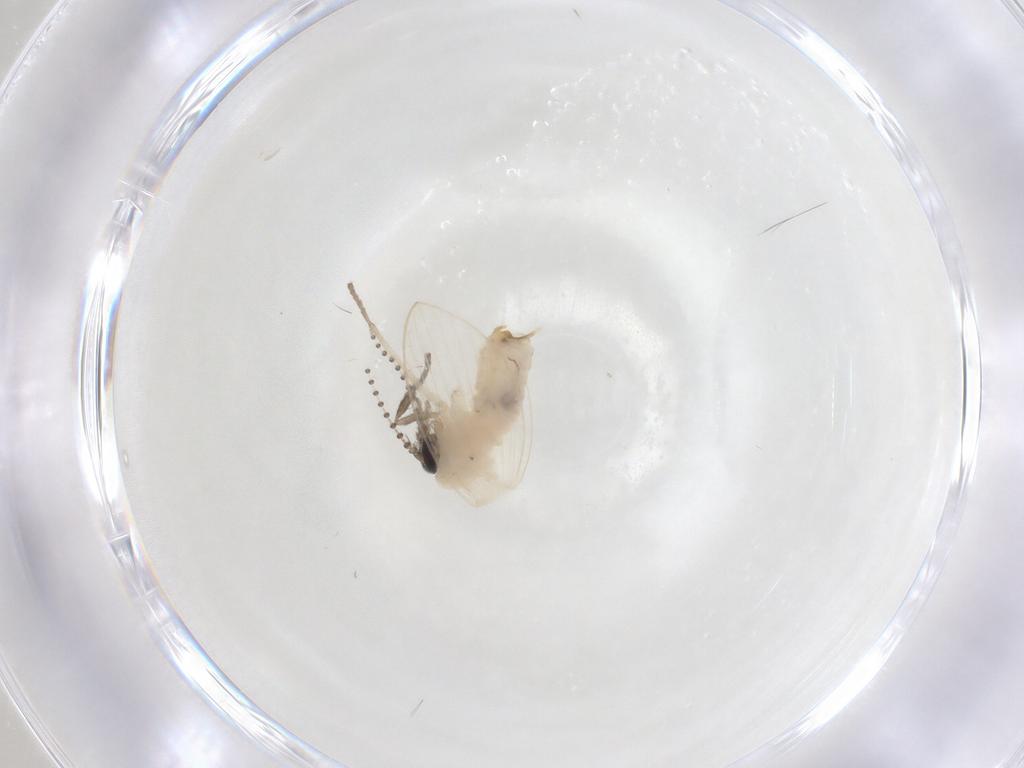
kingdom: Animalia
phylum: Arthropoda
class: Insecta
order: Diptera
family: Psychodidae
